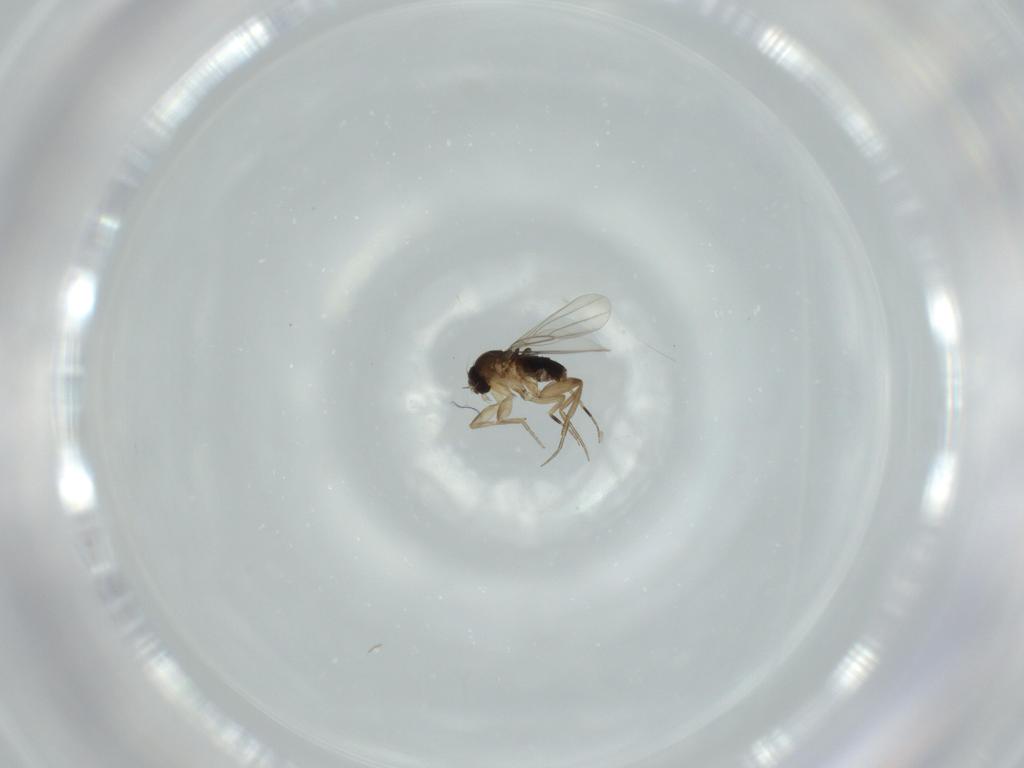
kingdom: Animalia
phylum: Arthropoda
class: Insecta
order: Diptera
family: Phoridae
